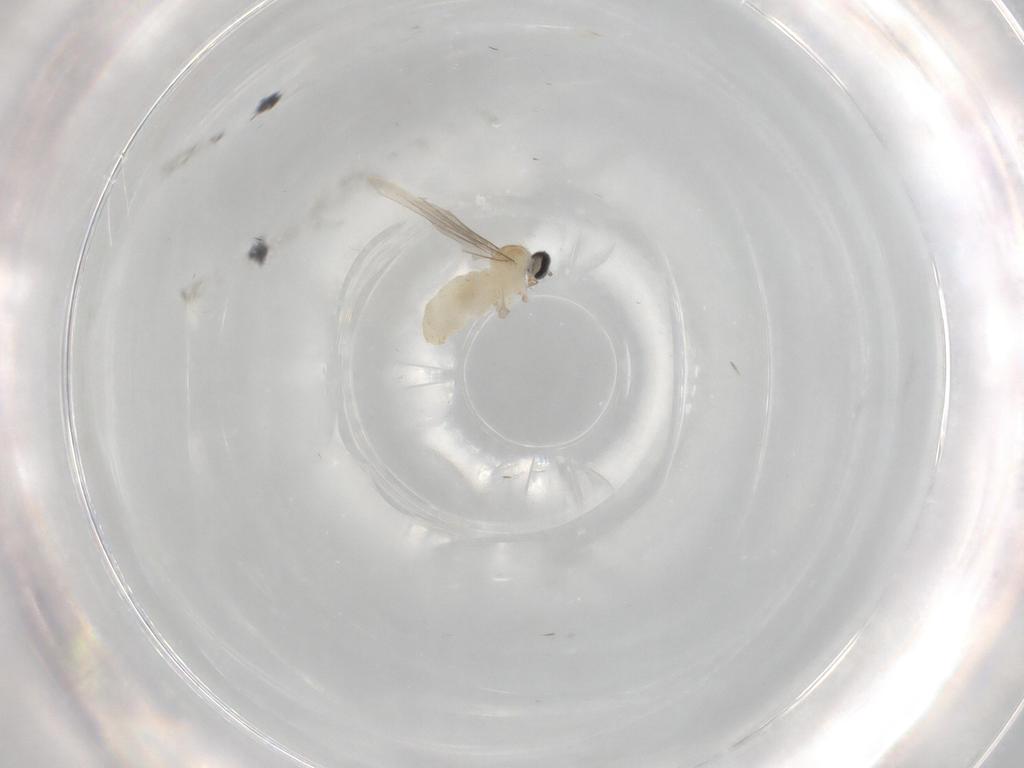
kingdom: Animalia
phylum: Arthropoda
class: Insecta
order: Diptera
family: Cecidomyiidae
